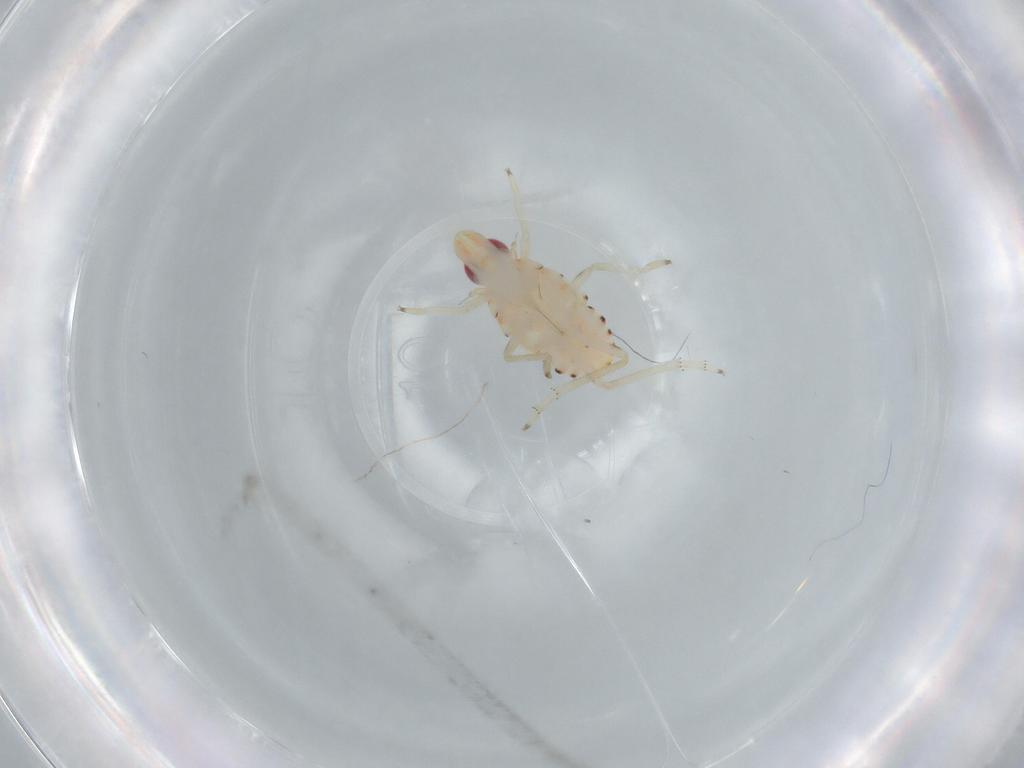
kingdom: Animalia
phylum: Arthropoda
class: Insecta
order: Hemiptera
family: Tropiduchidae
